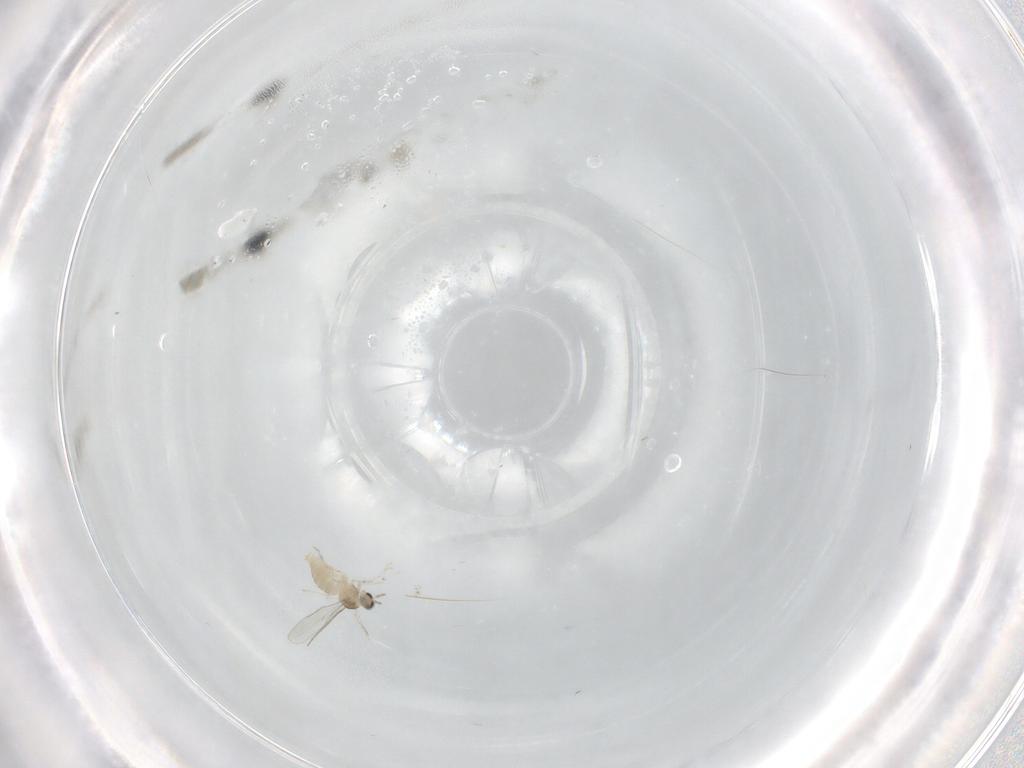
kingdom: Animalia
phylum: Arthropoda
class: Insecta
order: Diptera
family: Cecidomyiidae
